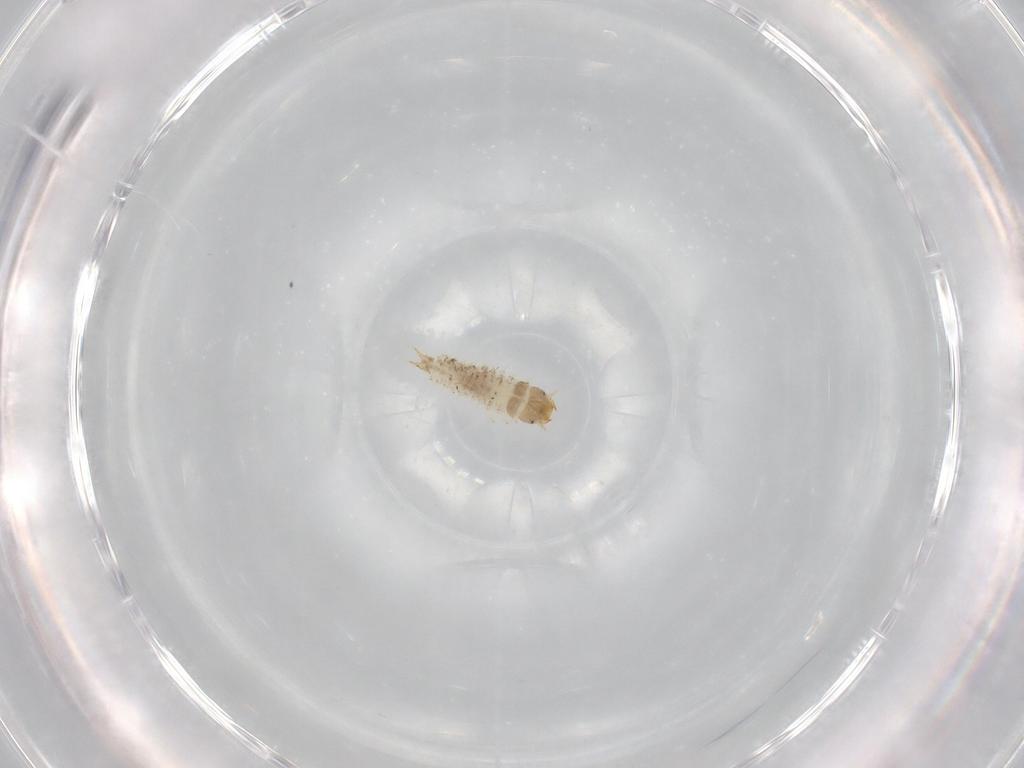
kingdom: Animalia
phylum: Arthropoda
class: Insecta
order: Coleoptera
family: Nitidulidae
